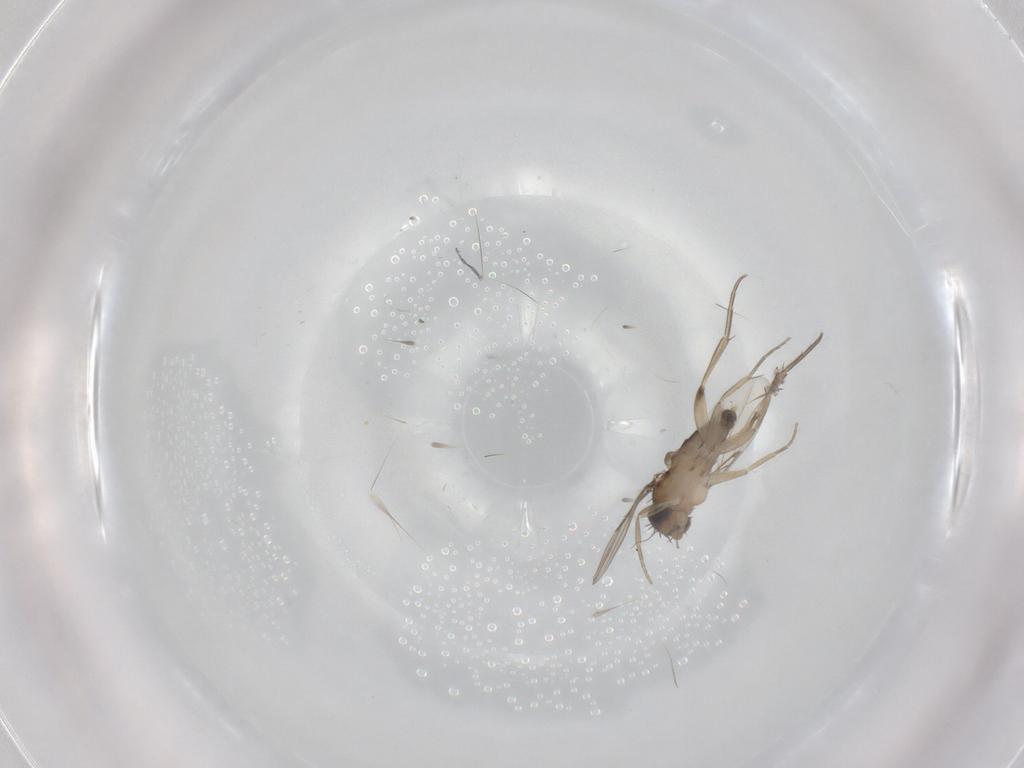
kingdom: Animalia
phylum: Arthropoda
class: Insecta
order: Diptera
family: Phoridae
